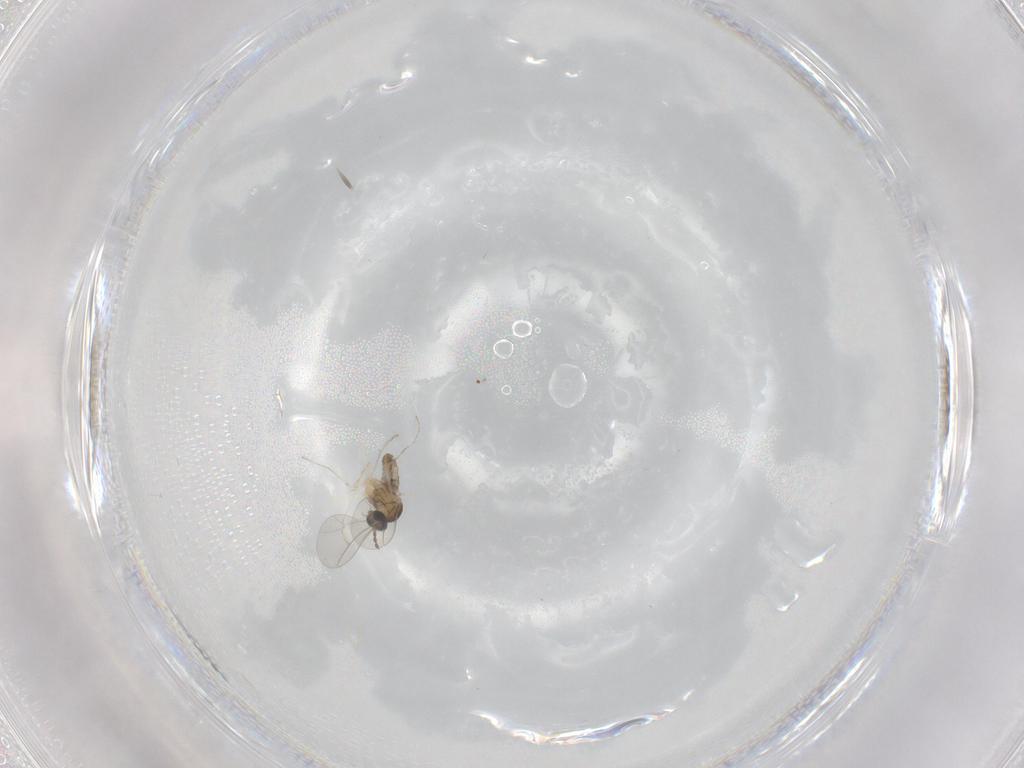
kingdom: Animalia
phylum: Arthropoda
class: Insecta
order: Diptera
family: Cecidomyiidae
